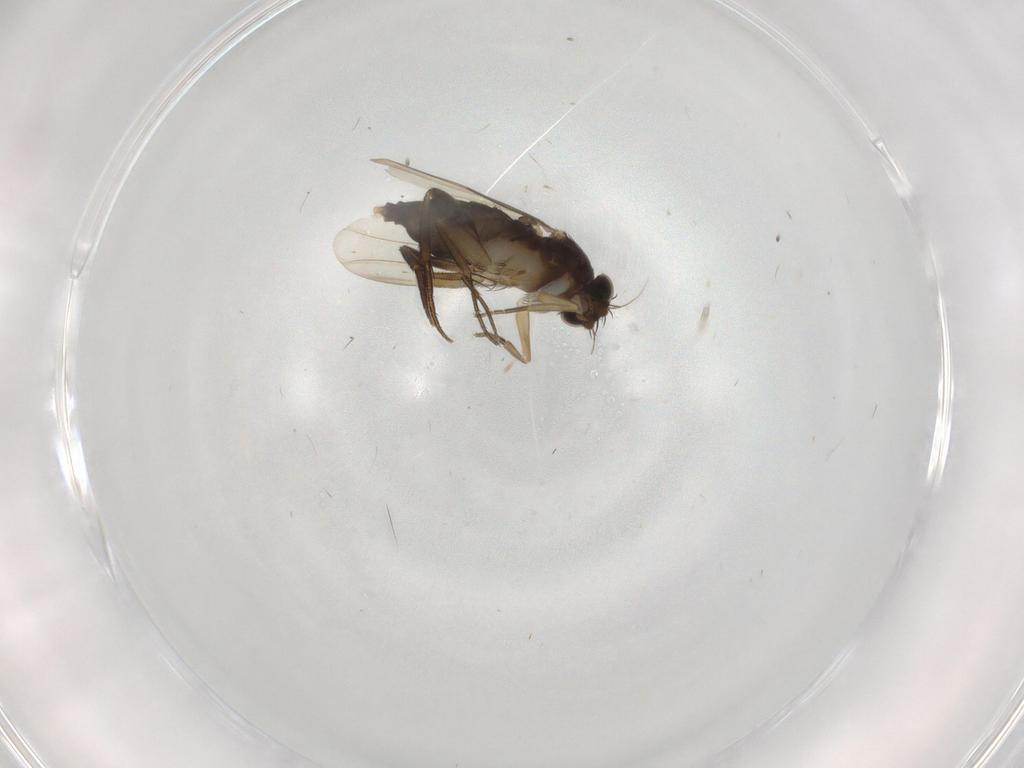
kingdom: Animalia
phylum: Arthropoda
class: Insecta
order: Diptera
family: Phoridae
